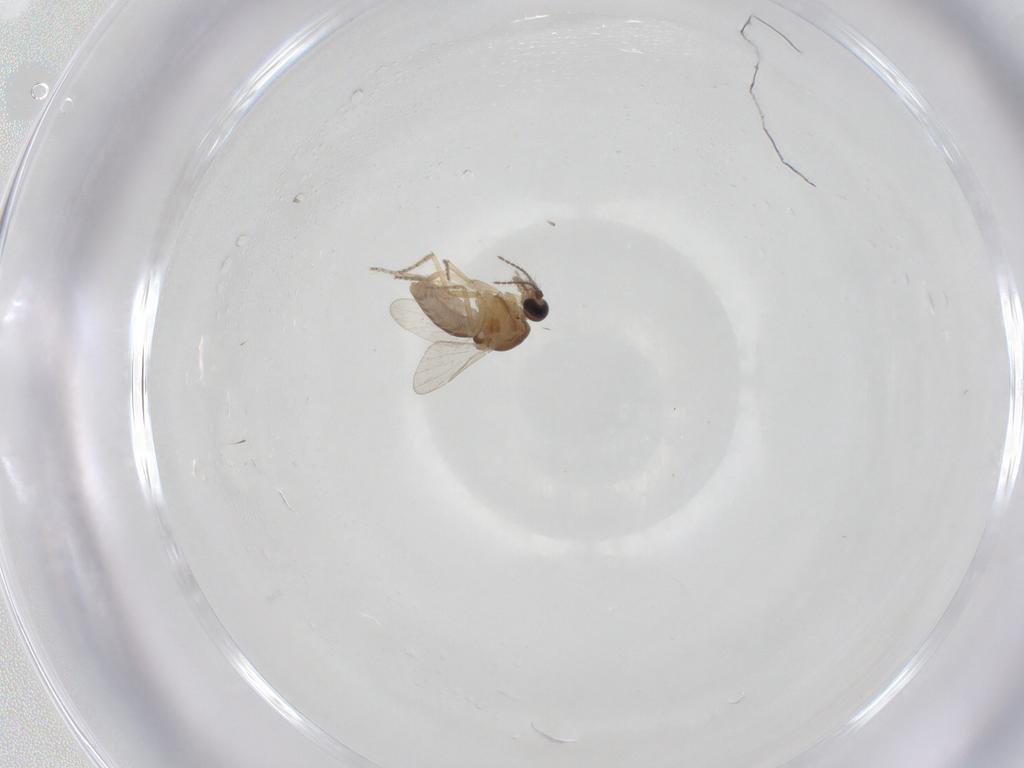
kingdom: Animalia
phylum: Arthropoda
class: Insecta
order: Diptera
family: Ceratopogonidae
